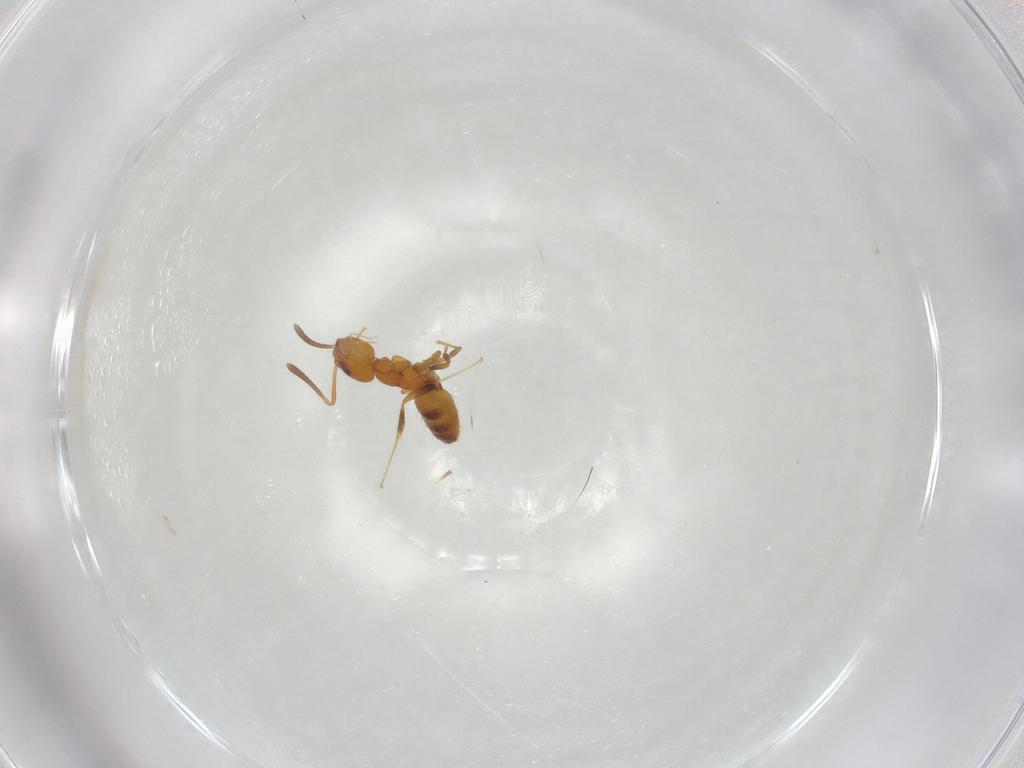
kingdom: Animalia
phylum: Arthropoda
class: Insecta
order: Hymenoptera
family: Formicidae
